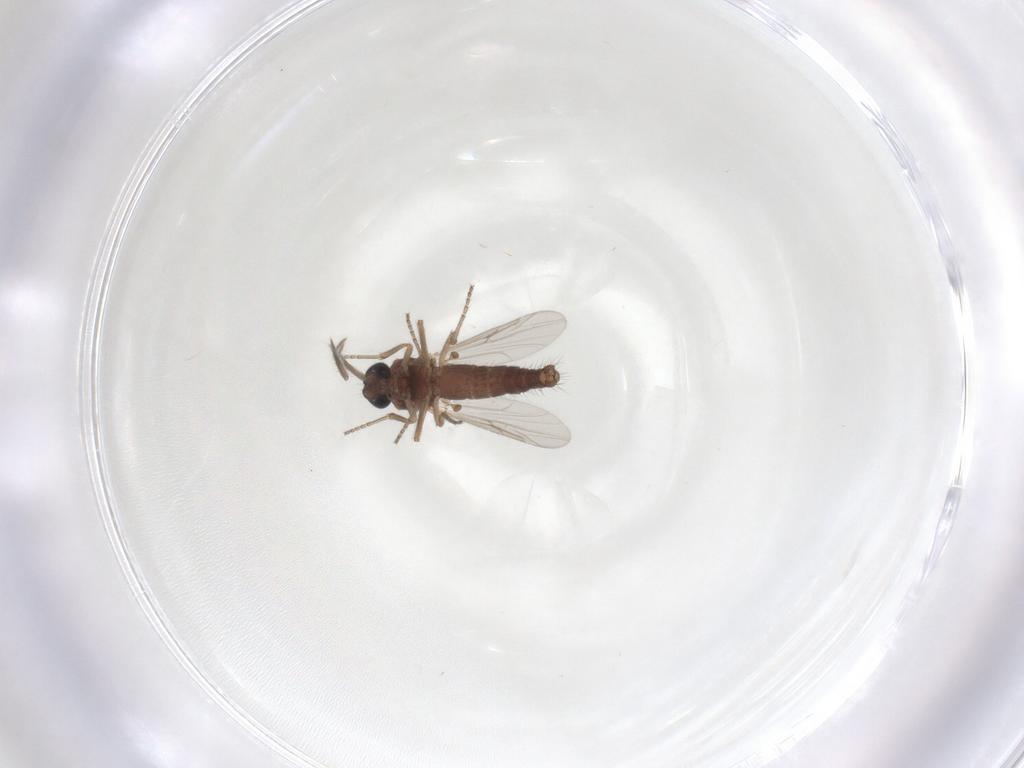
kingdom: Animalia
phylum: Arthropoda
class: Insecta
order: Diptera
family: Ceratopogonidae
